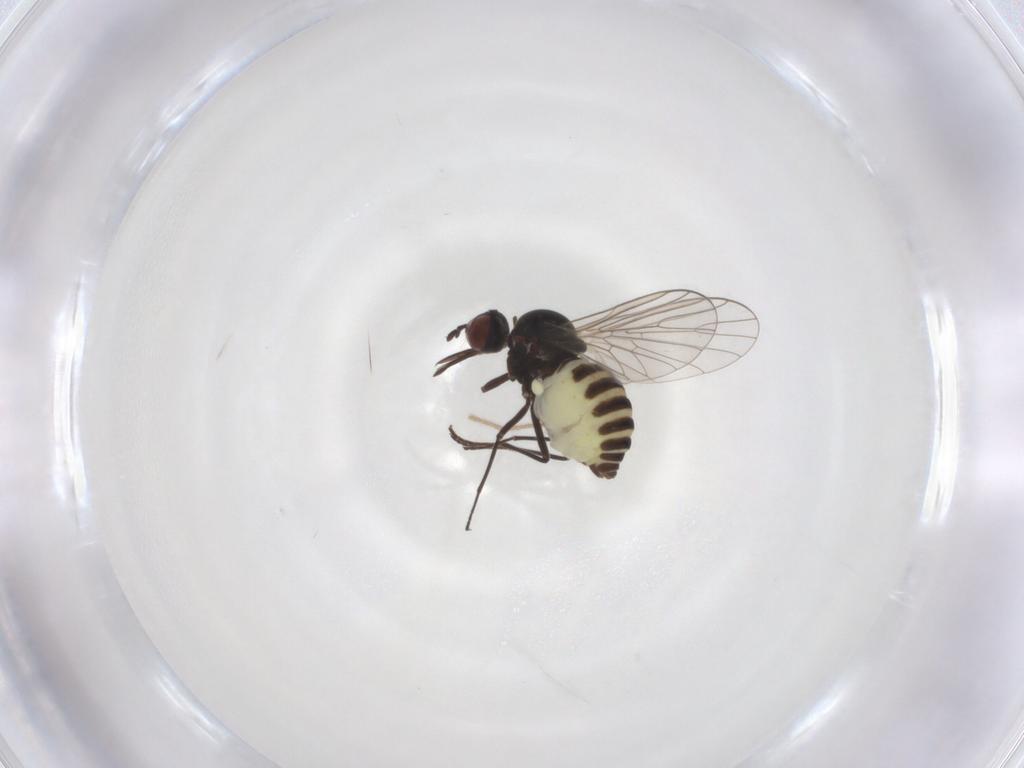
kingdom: Animalia
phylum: Arthropoda
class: Insecta
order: Diptera
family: Bombyliidae
